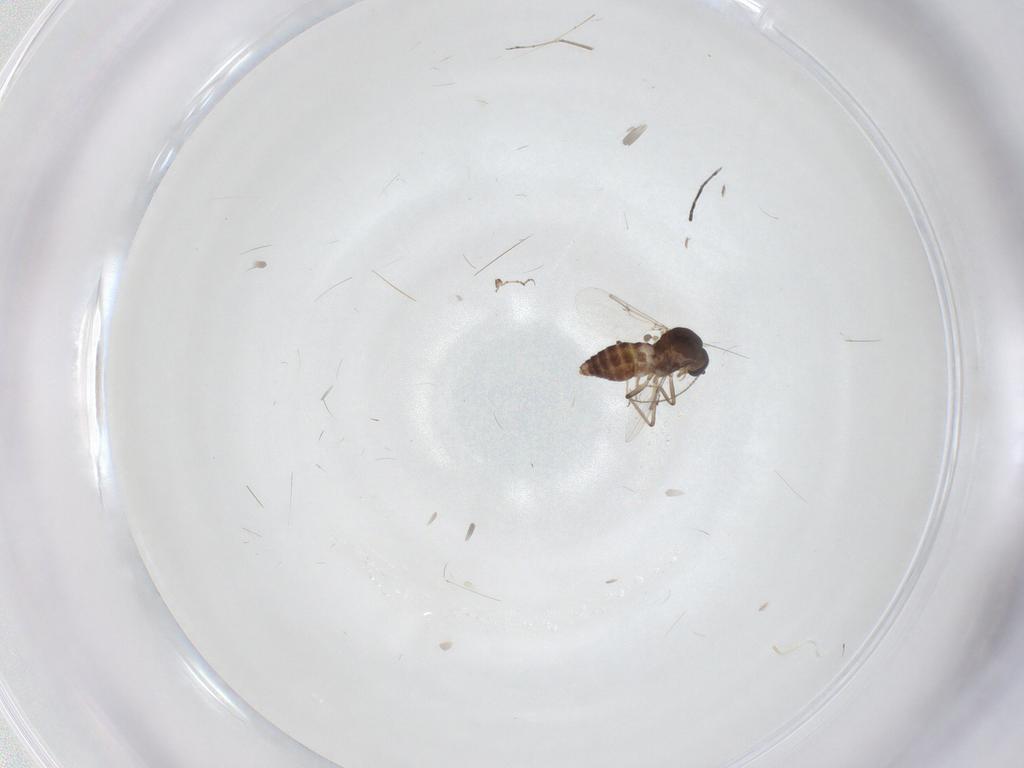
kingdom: Animalia
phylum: Arthropoda
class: Insecta
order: Diptera
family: Ceratopogonidae
